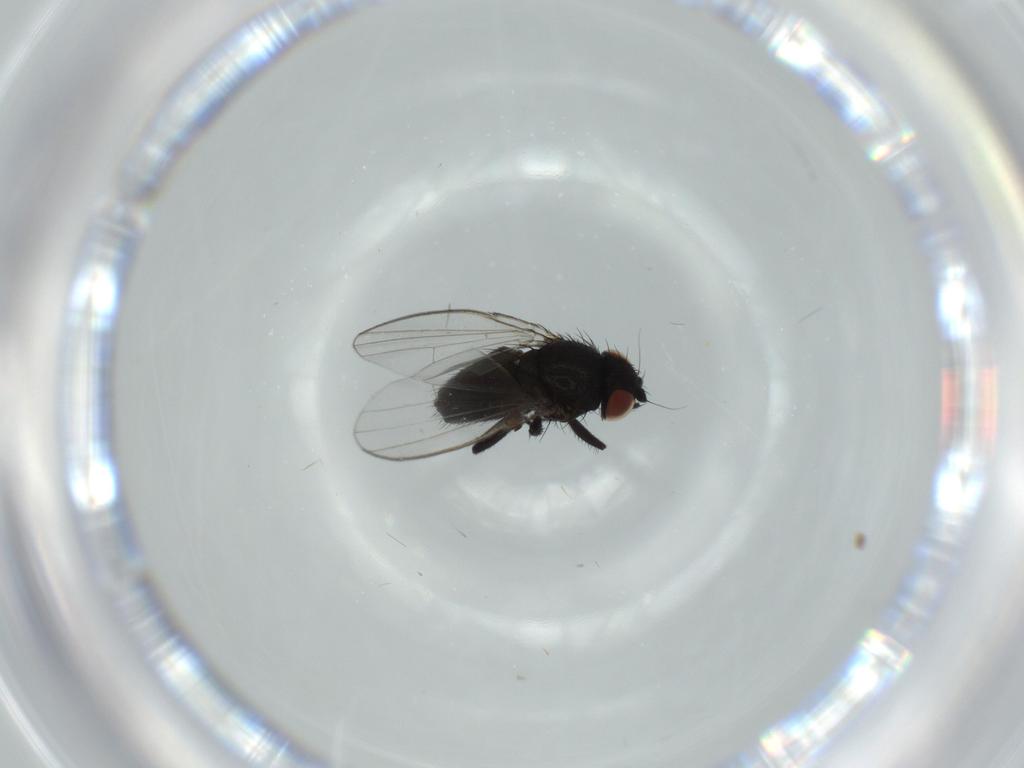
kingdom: Animalia
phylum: Arthropoda
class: Insecta
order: Diptera
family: Milichiidae
